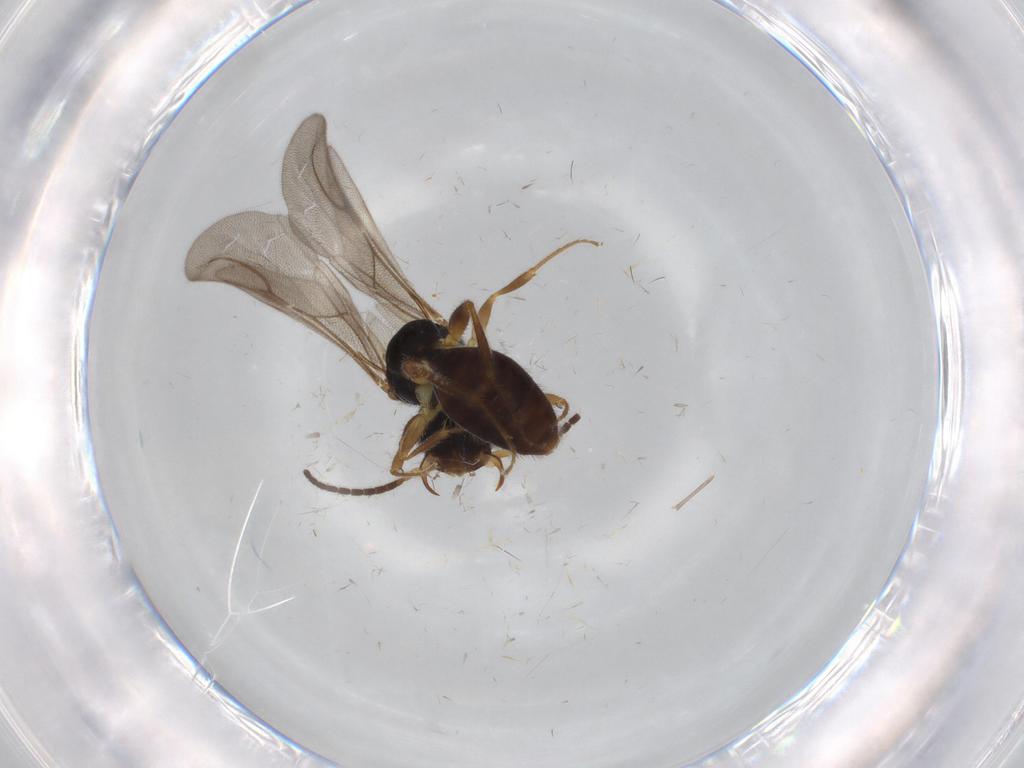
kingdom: Animalia
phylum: Arthropoda
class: Insecta
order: Hymenoptera
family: Bethylidae
